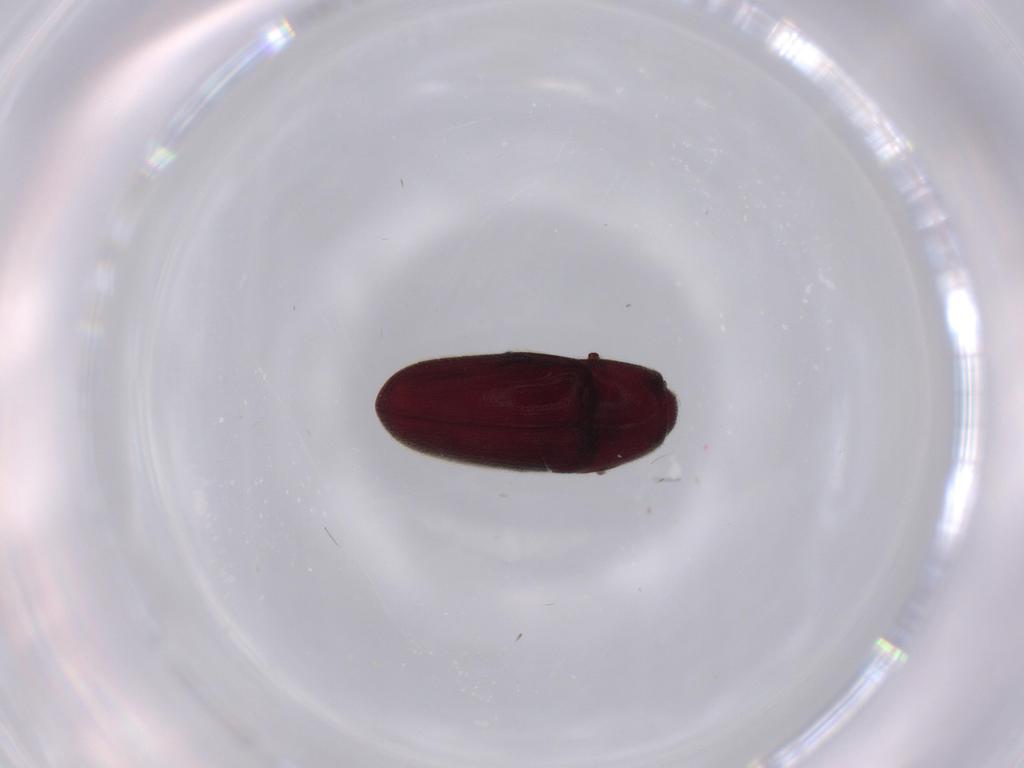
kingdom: Animalia
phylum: Arthropoda
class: Insecta
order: Coleoptera
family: Throscidae
